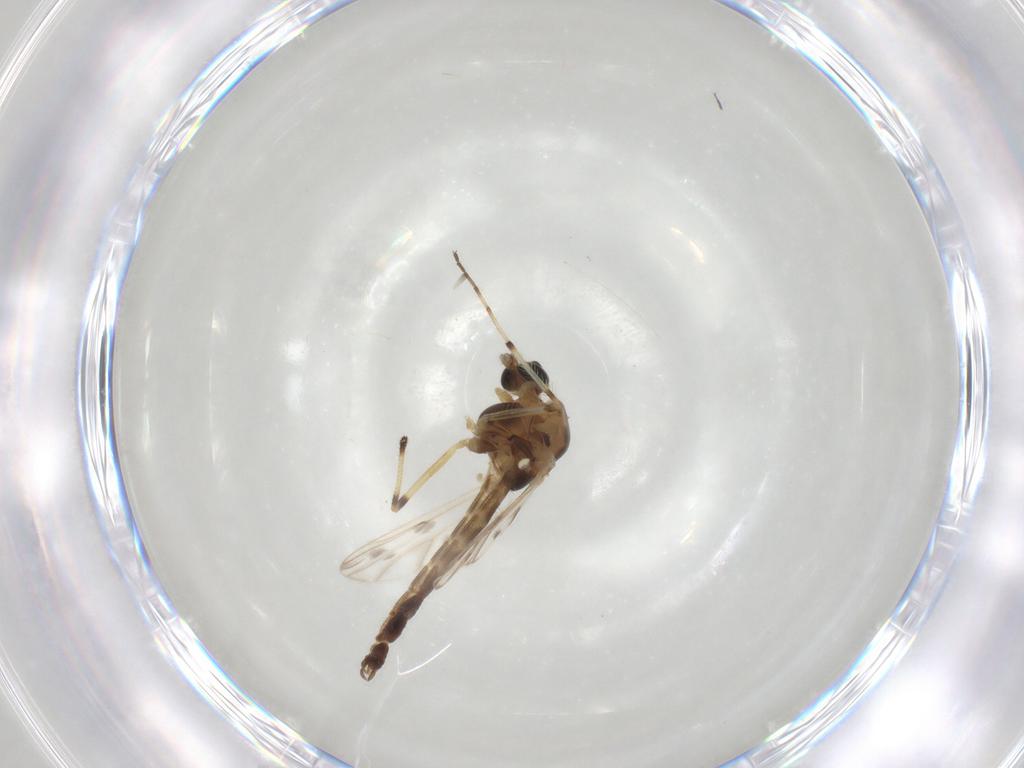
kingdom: Animalia
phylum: Arthropoda
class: Insecta
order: Diptera
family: Chironomidae
